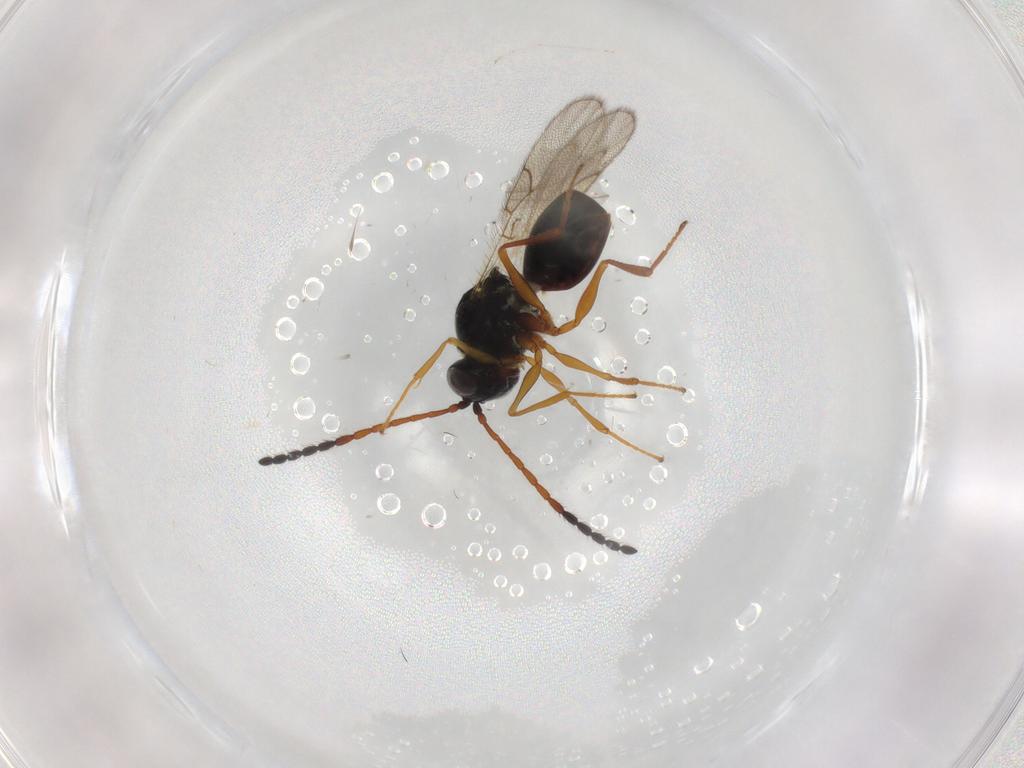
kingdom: Animalia
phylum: Arthropoda
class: Insecta
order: Hymenoptera
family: Figitidae
